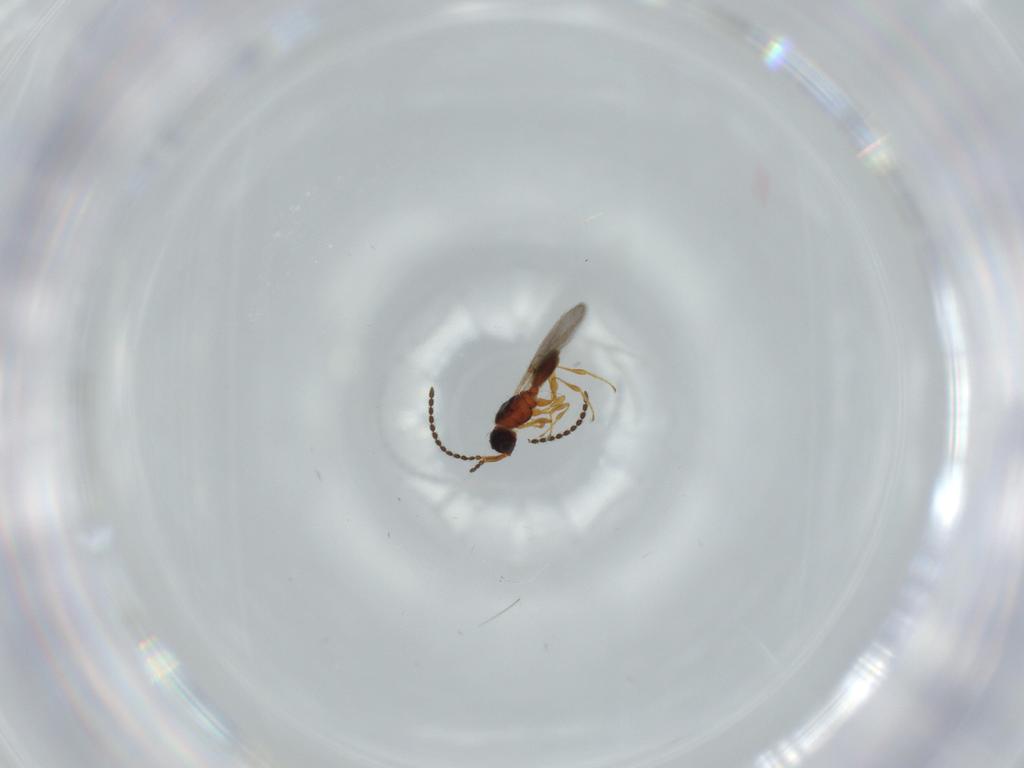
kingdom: Animalia
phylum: Arthropoda
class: Insecta
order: Hymenoptera
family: Diapriidae
